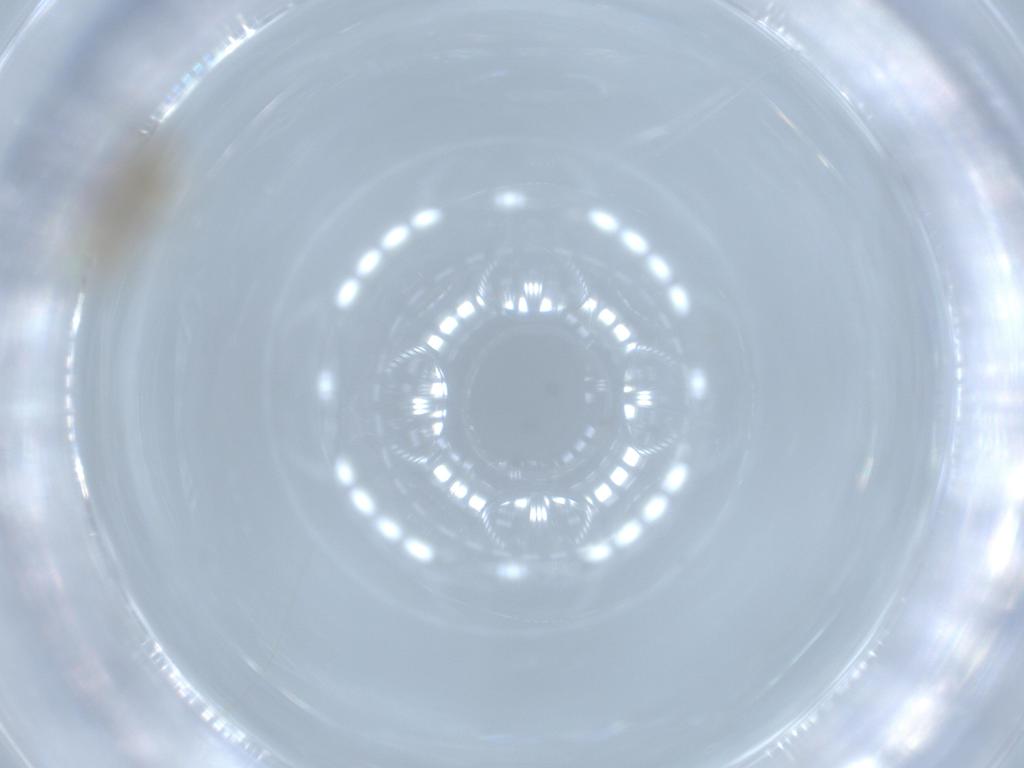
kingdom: Animalia
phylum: Arthropoda
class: Insecta
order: Psocodea
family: Lachesillidae
